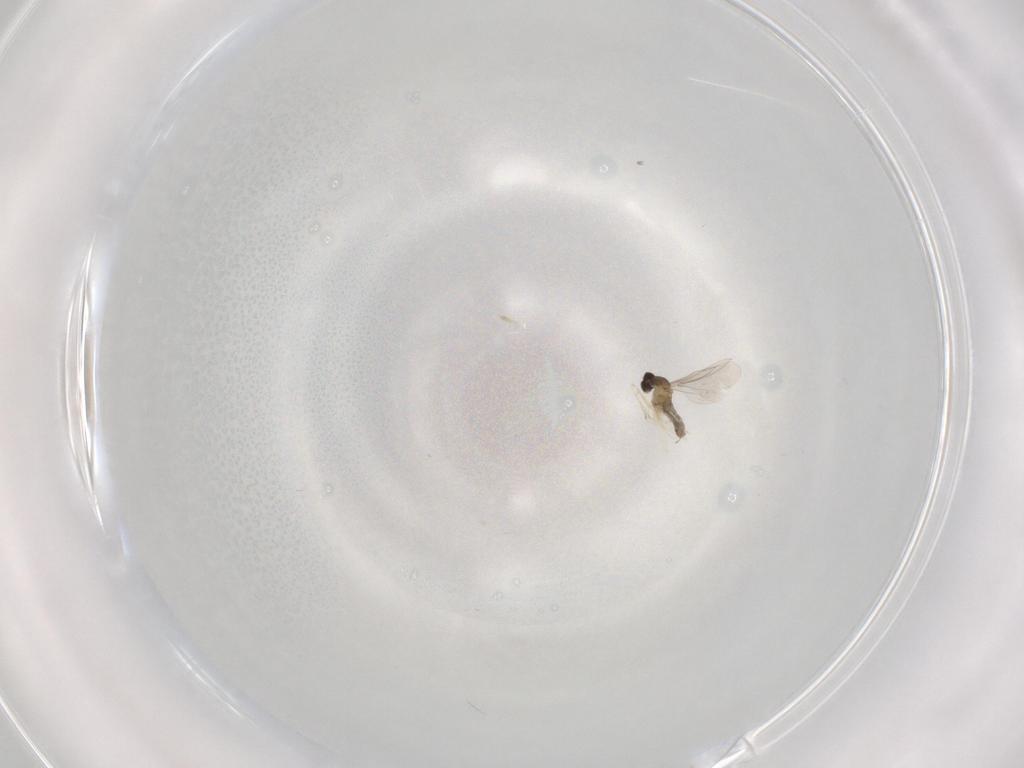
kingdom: Animalia
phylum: Arthropoda
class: Insecta
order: Diptera
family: Cecidomyiidae
